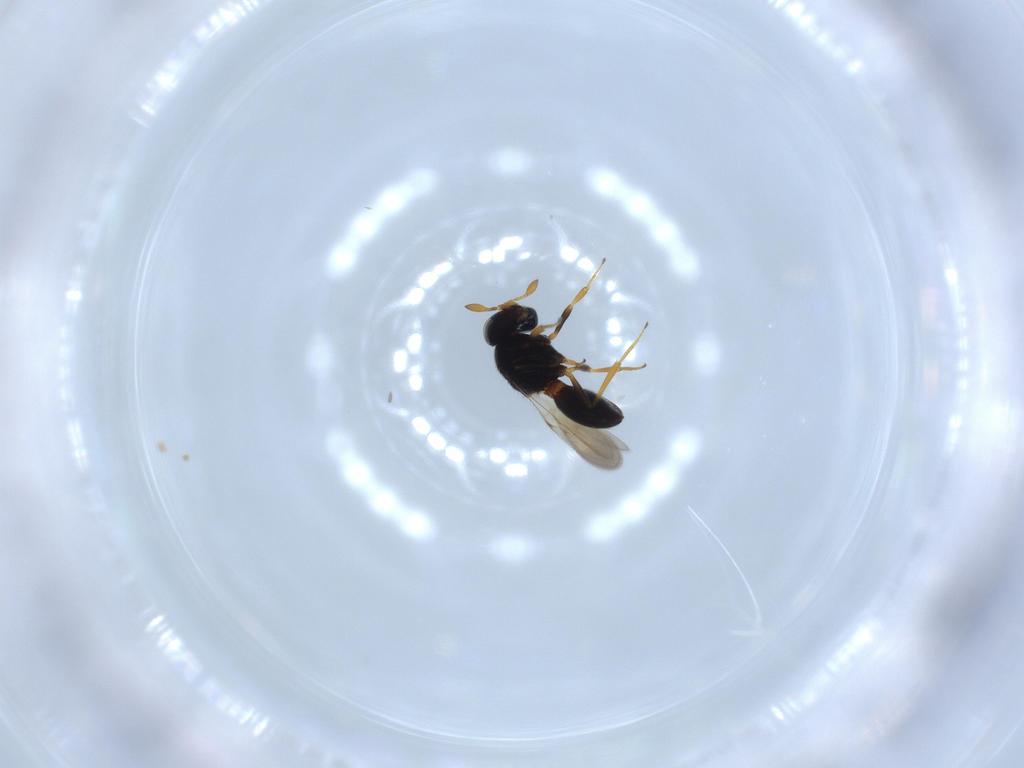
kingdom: Animalia
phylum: Arthropoda
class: Insecta
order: Hymenoptera
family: Scelionidae
